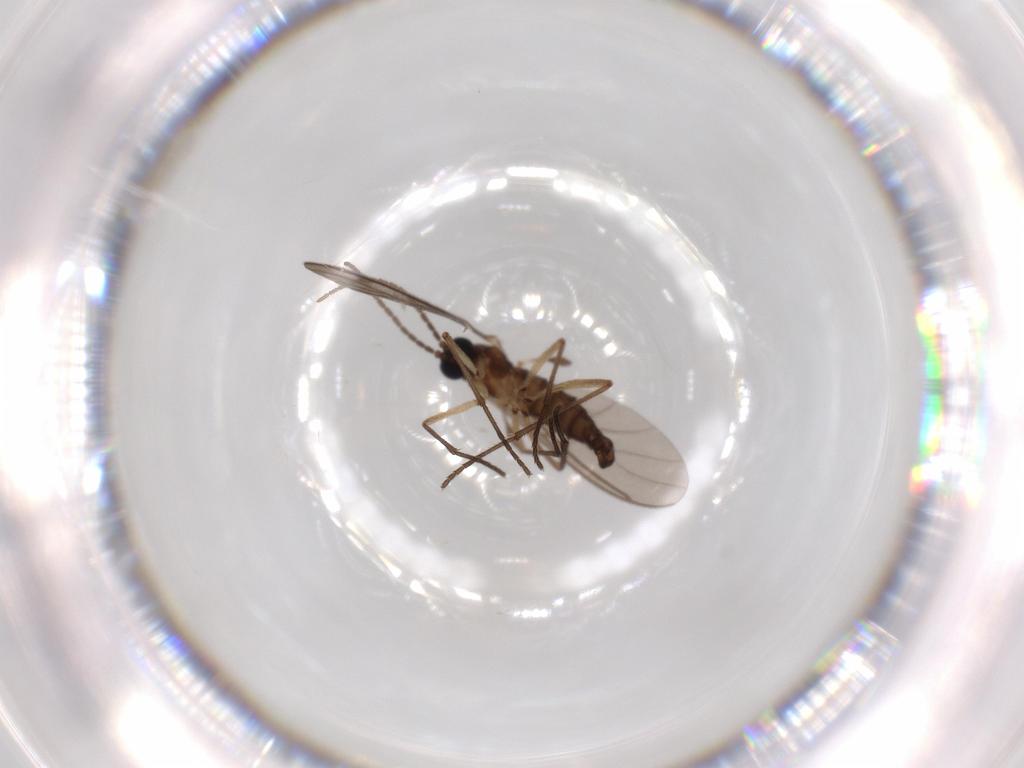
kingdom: Animalia
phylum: Arthropoda
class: Insecta
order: Diptera
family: Sciaridae
